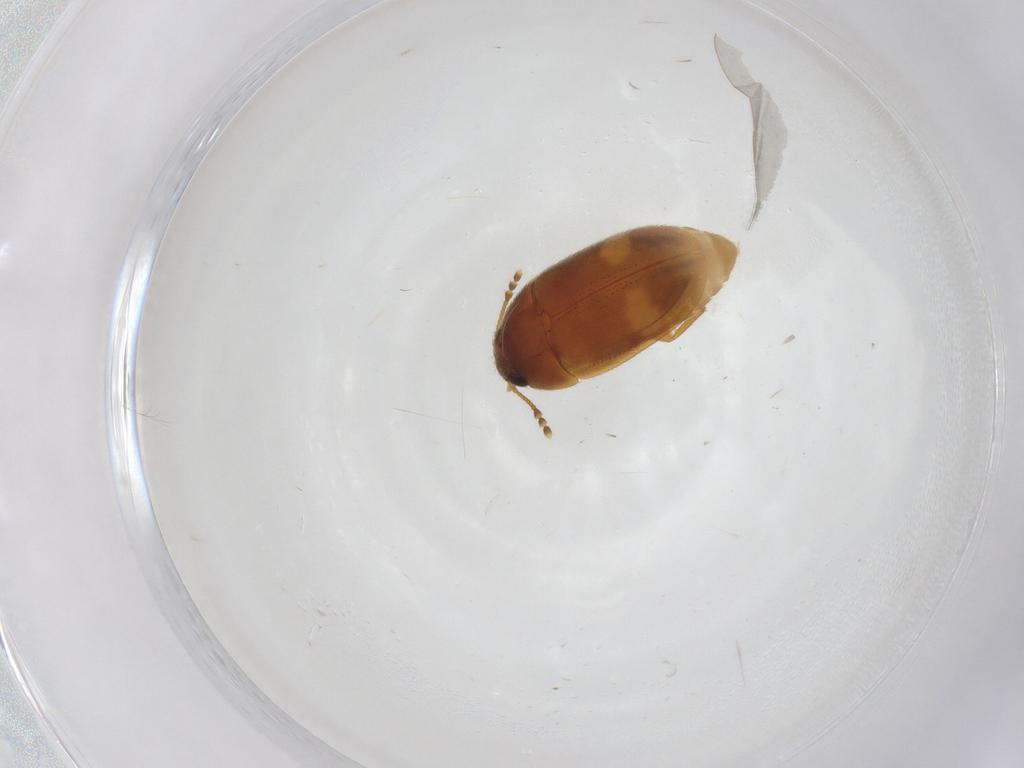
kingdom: Animalia
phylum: Arthropoda
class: Insecta
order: Coleoptera
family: Mycetophagidae
